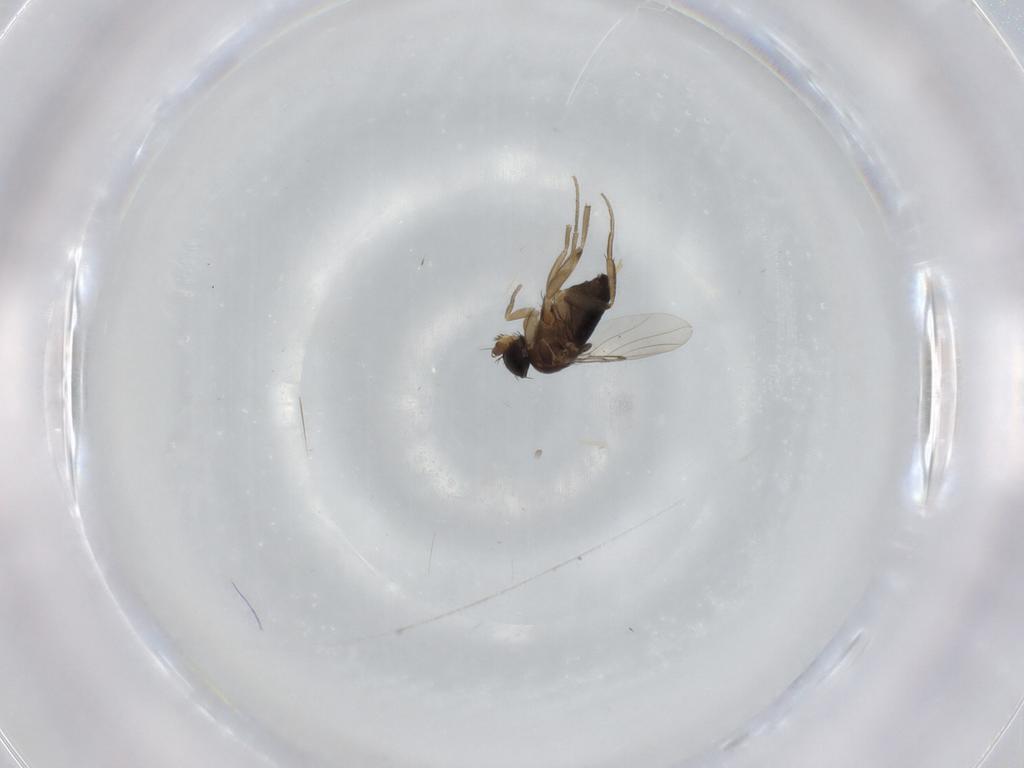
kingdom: Animalia
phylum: Arthropoda
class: Insecta
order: Diptera
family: Phoridae
